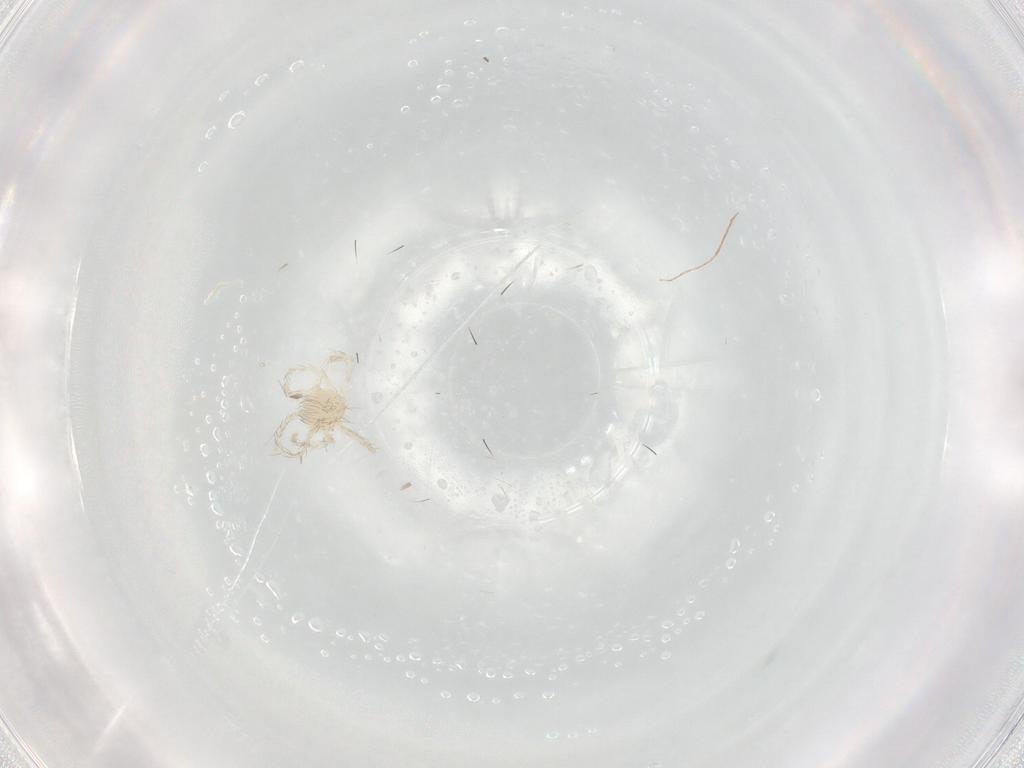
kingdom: Animalia
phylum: Arthropoda
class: Arachnida
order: Trombidiformes
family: Erythraeidae
